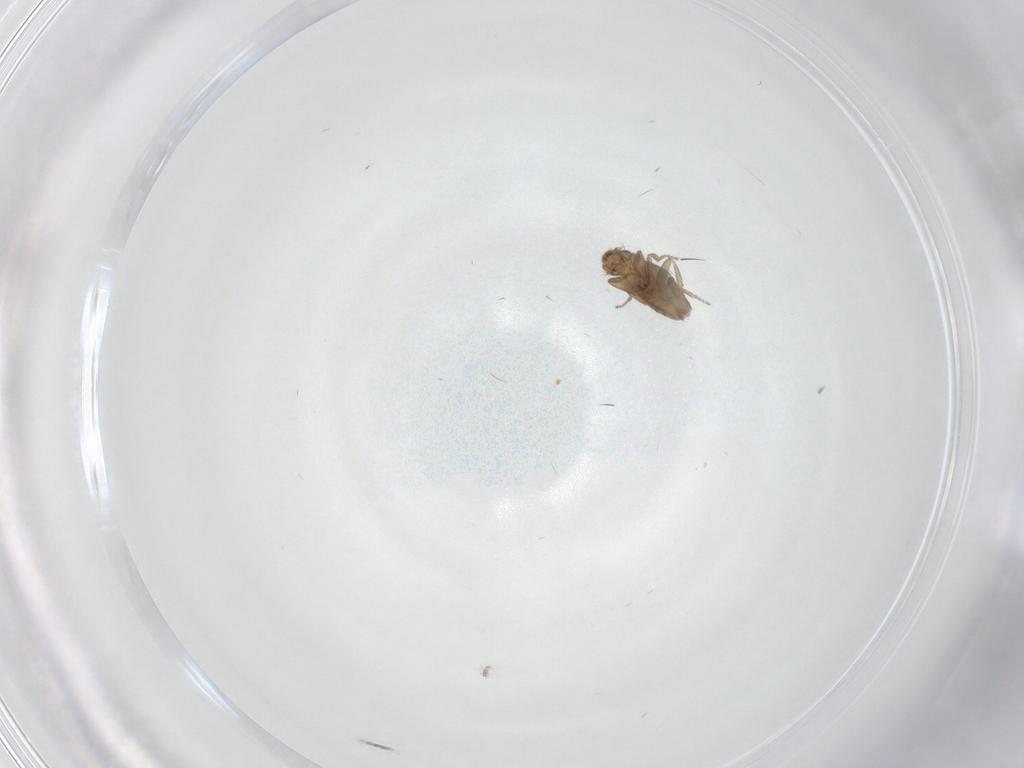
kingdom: Animalia
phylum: Arthropoda
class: Insecta
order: Diptera
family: Phoridae
